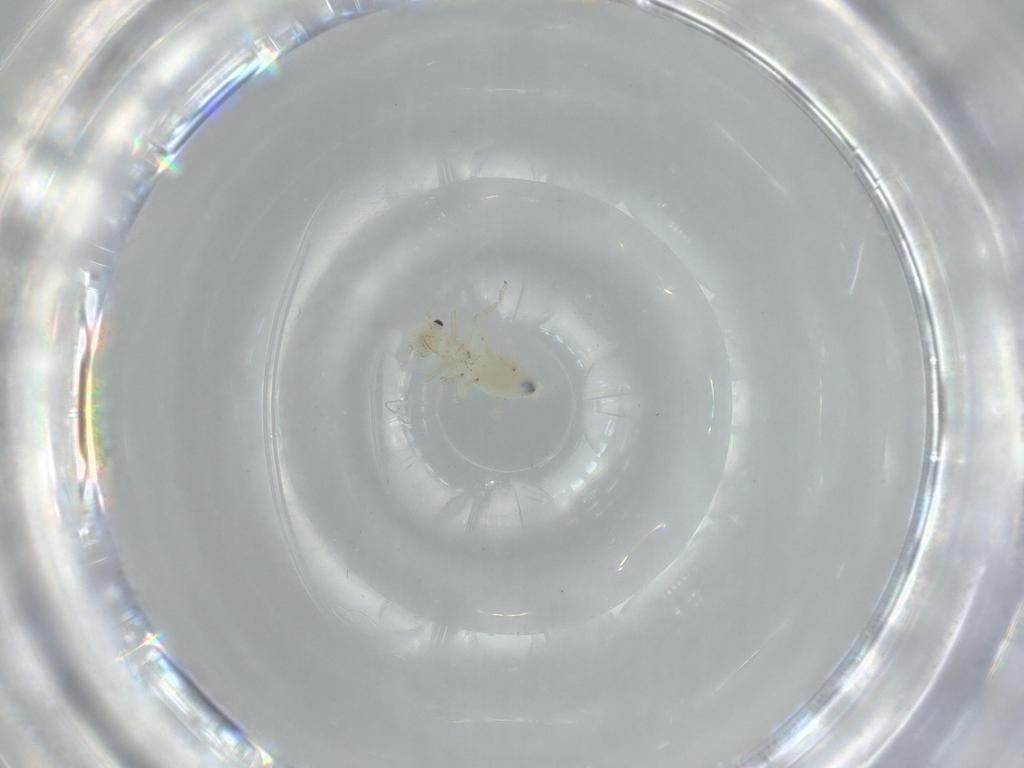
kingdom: Animalia
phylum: Arthropoda
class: Insecta
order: Psocodea
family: Caeciliusidae
